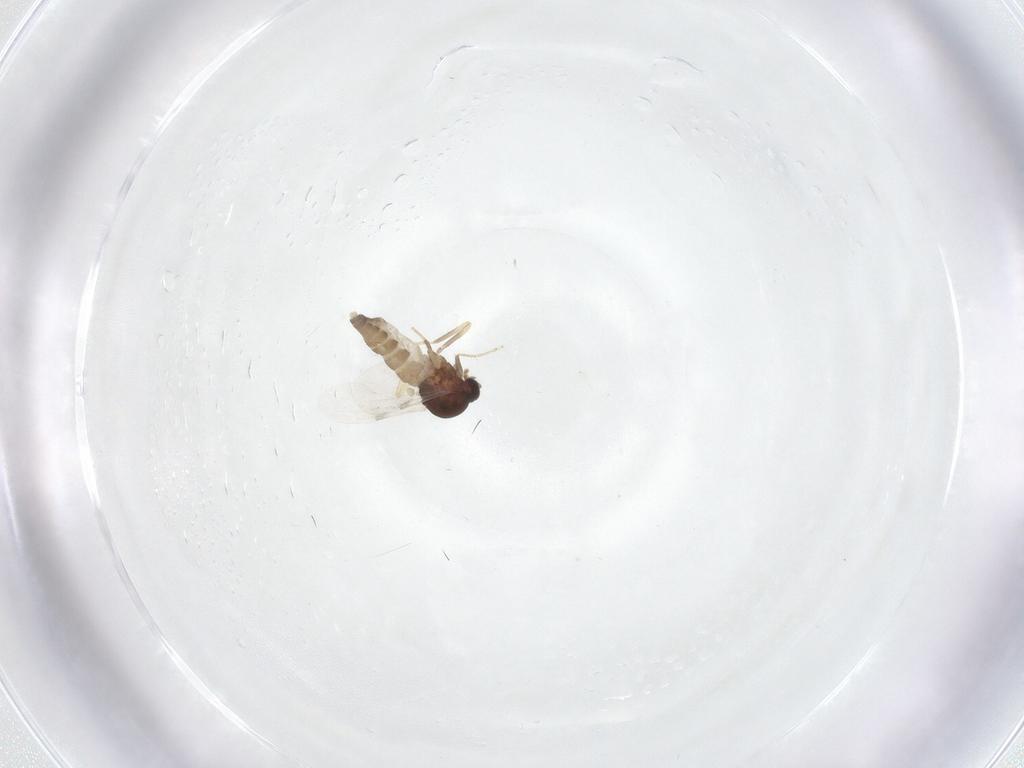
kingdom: Animalia
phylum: Arthropoda
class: Insecta
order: Diptera
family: Ceratopogonidae
